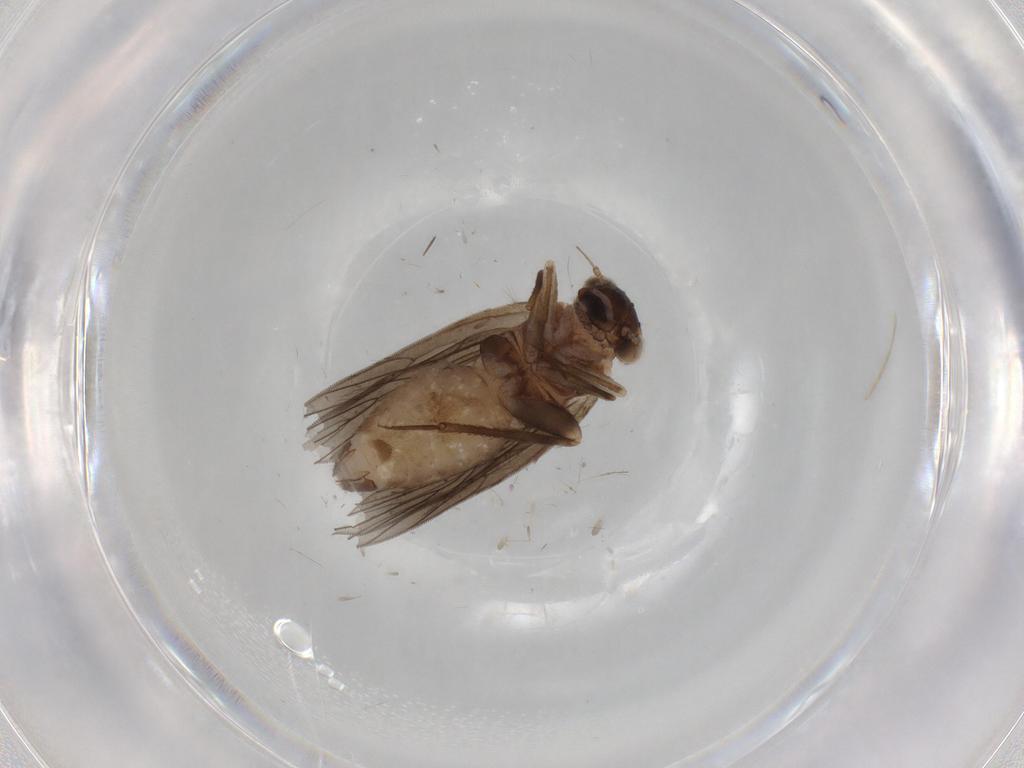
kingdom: Animalia
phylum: Arthropoda
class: Insecta
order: Psocodea
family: Lepidopsocidae
